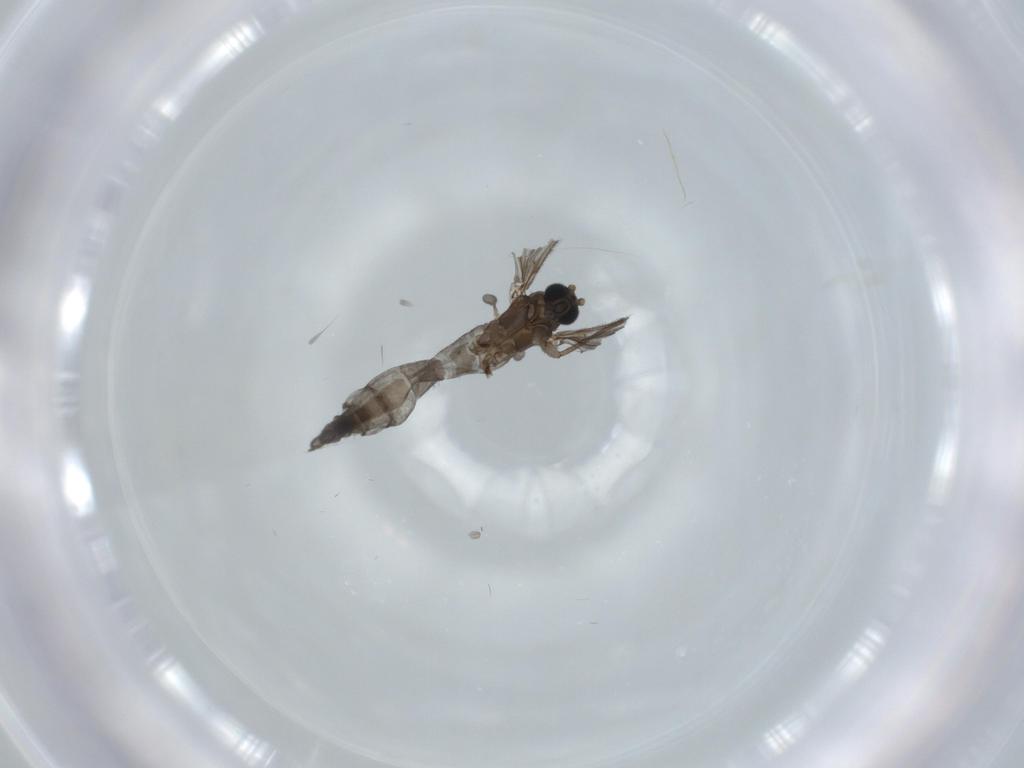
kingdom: Animalia
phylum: Arthropoda
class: Insecta
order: Diptera
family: Sciaridae
